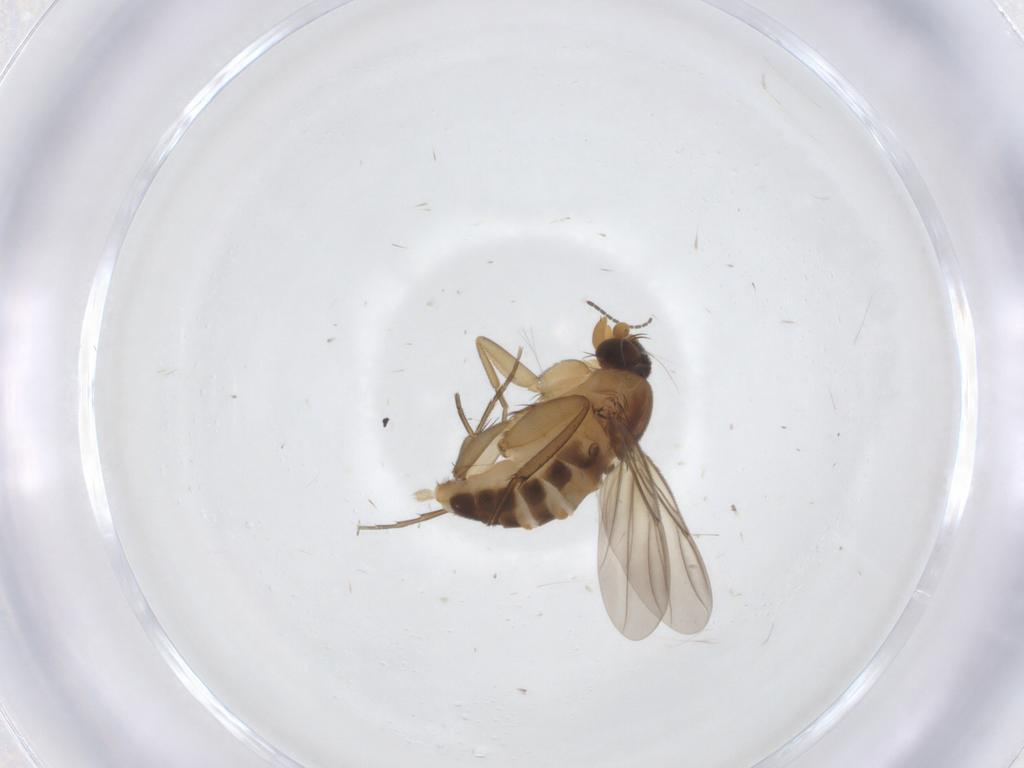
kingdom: Animalia
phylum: Arthropoda
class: Insecta
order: Diptera
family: Phoridae
